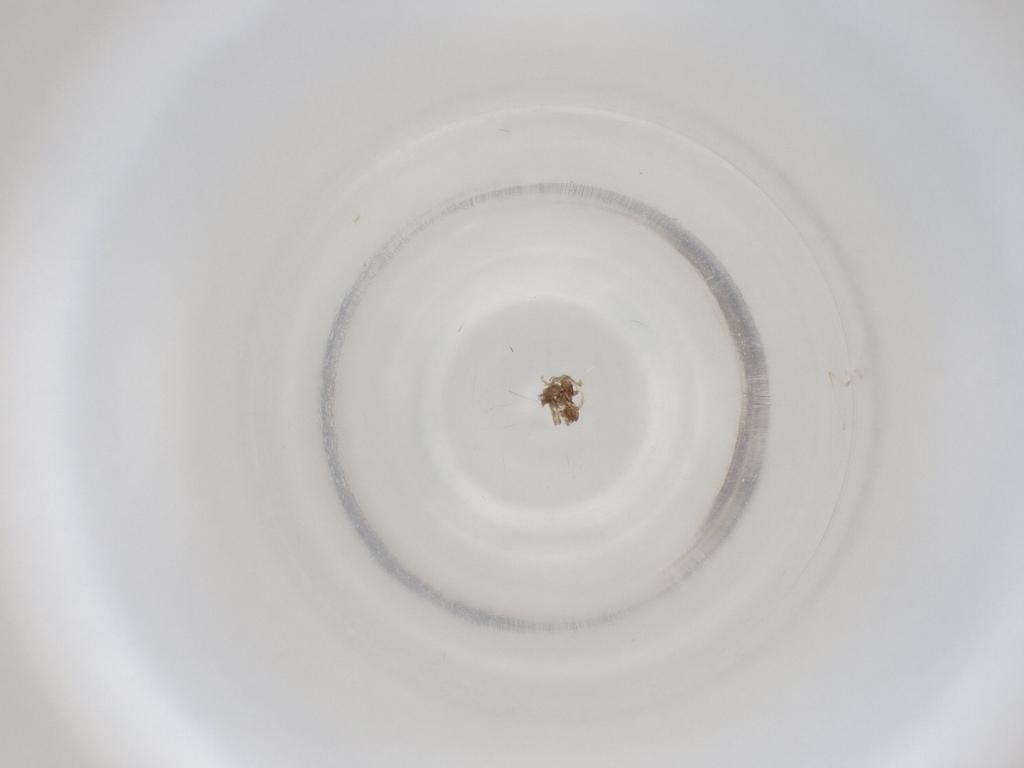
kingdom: Animalia
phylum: Arthropoda
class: Insecta
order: Diptera
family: Cecidomyiidae
